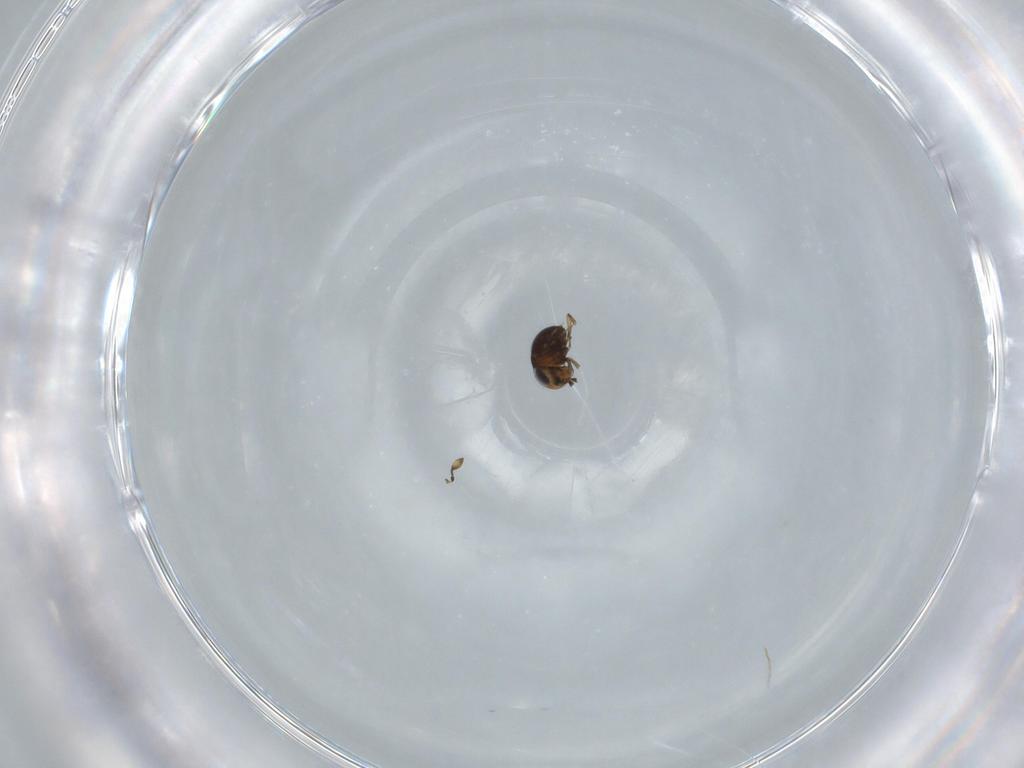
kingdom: Animalia
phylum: Arthropoda
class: Insecta
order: Hymenoptera
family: Scelionidae
